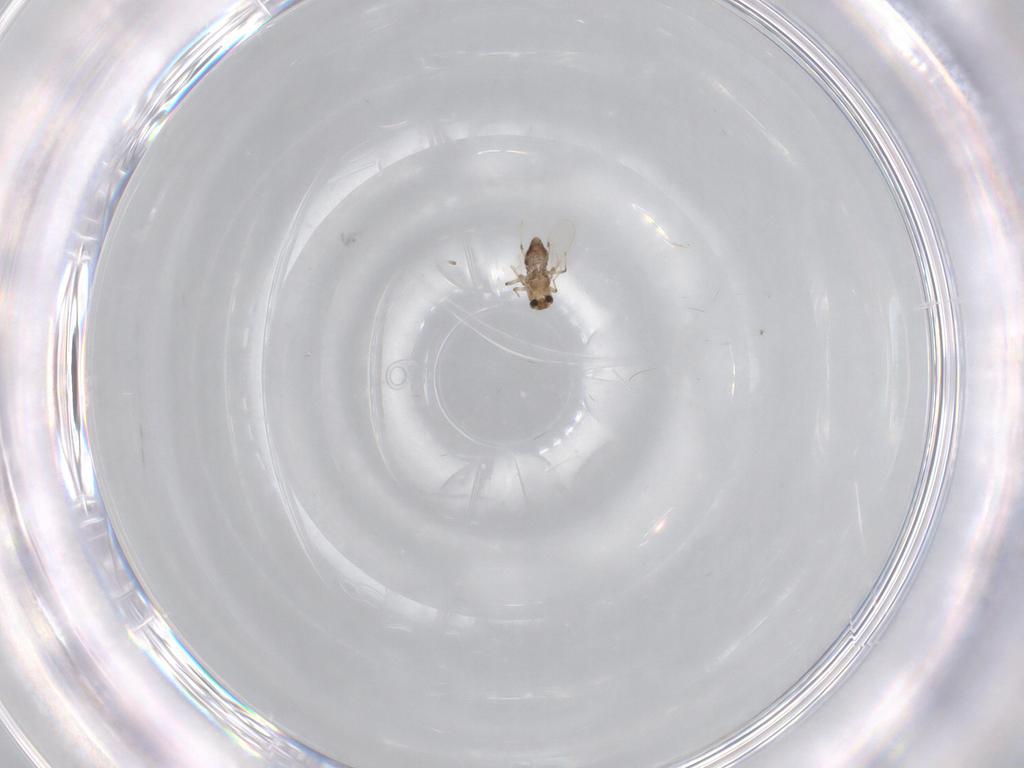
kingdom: Animalia
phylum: Arthropoda
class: Insecta
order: Diptera
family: Chironomidae
